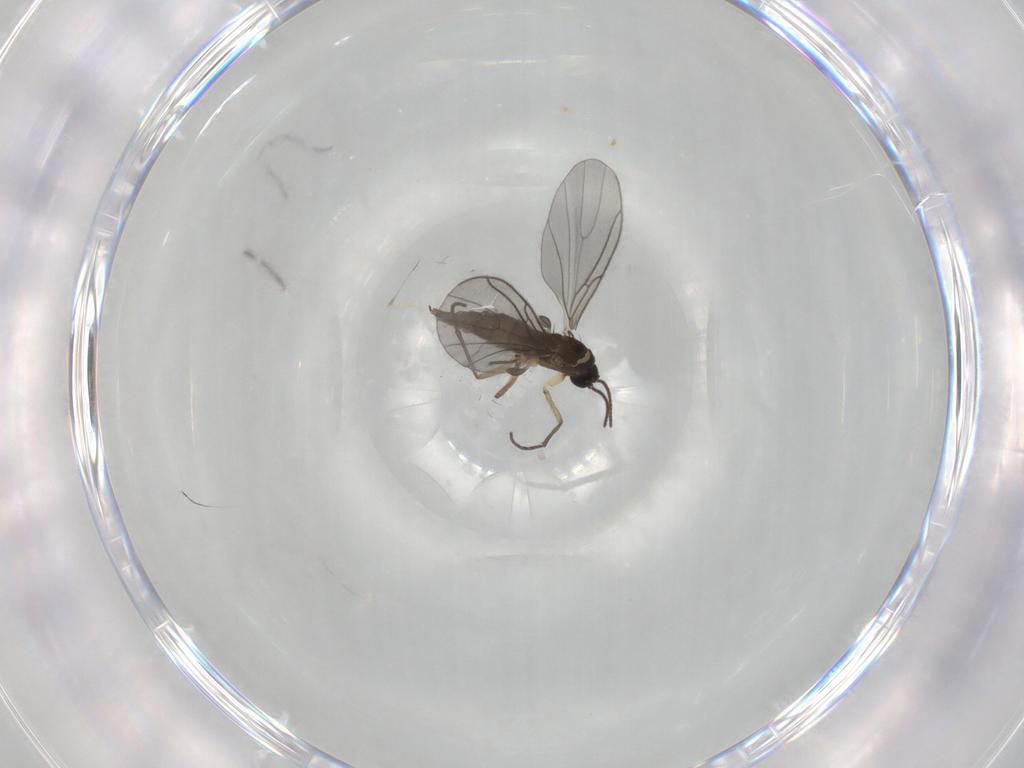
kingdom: Animalia
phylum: Arthropoda
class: Insecta
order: Diptera
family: Sciaridae
